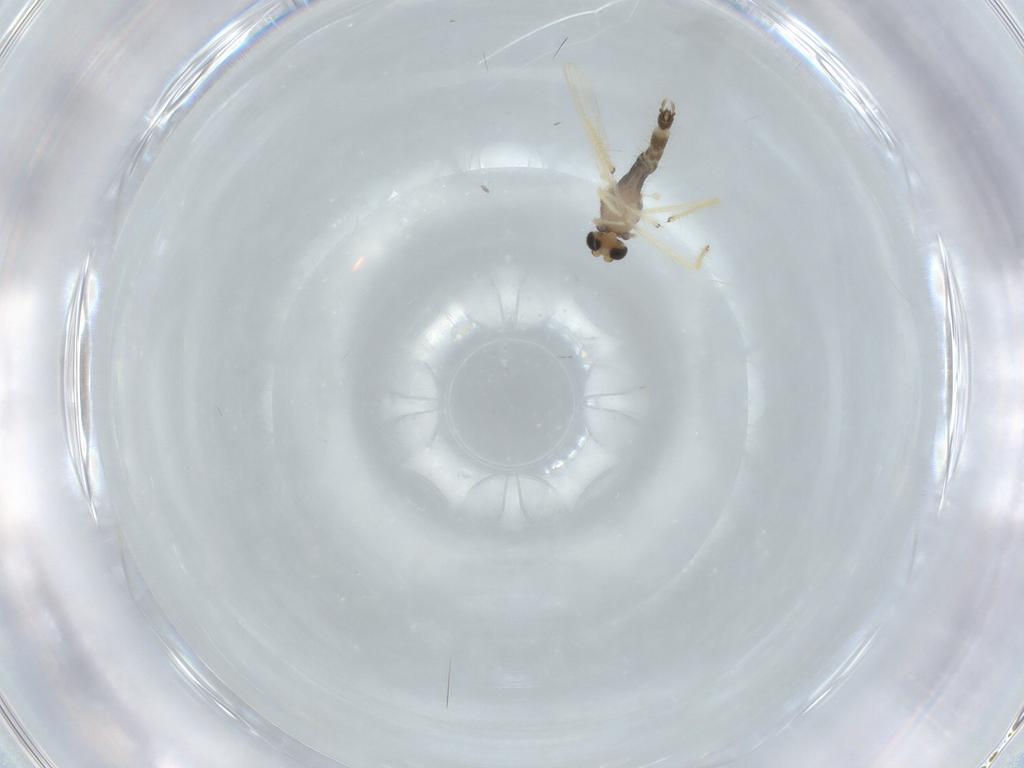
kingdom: Animalia
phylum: Arthropoda
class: Insecta
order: Diptera
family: Chironomidae
